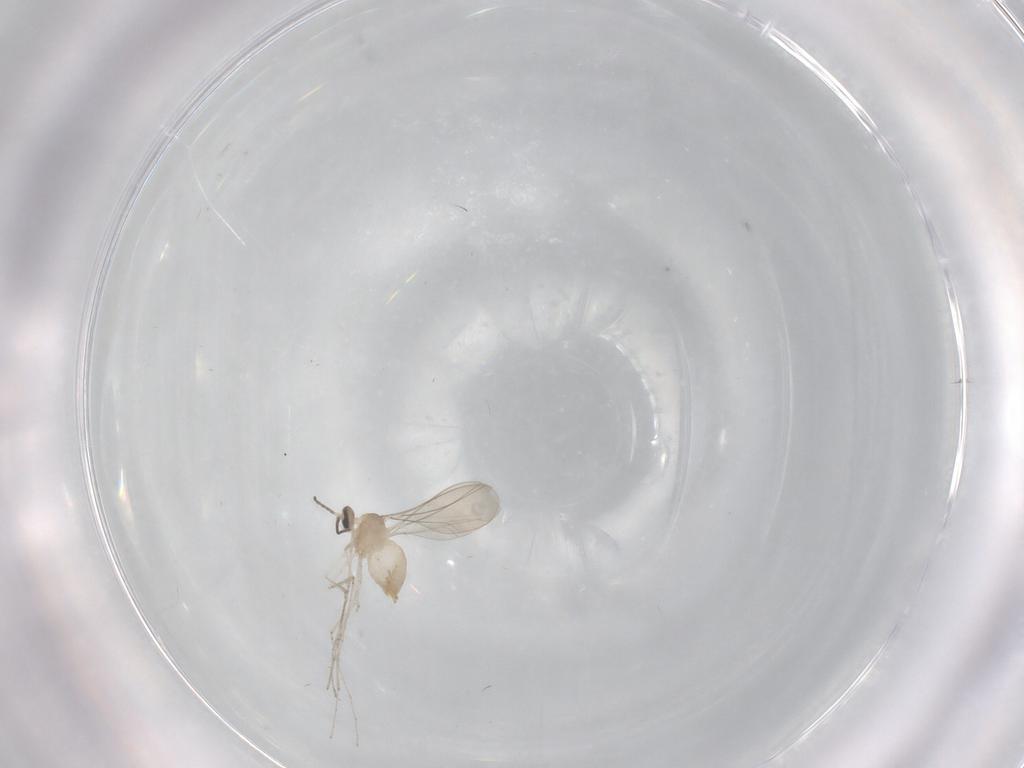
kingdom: Animalia
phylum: Arthropoda
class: Insecta
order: Diptera
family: Cecidomyiidae
